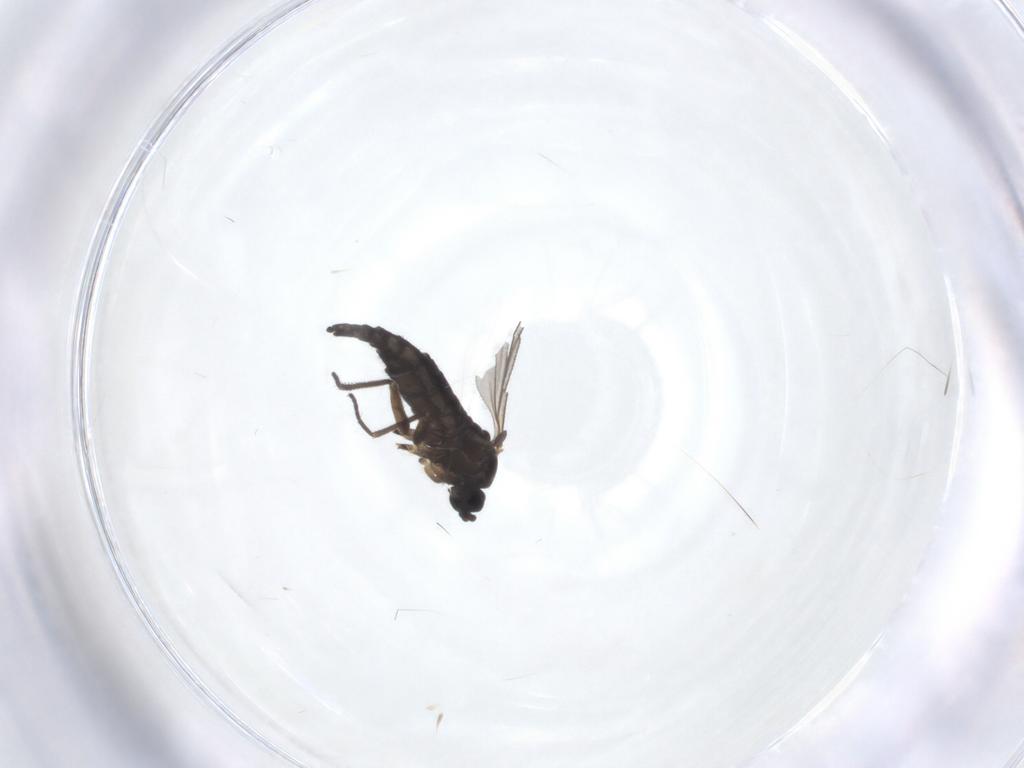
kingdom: Animalia
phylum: Arthropoda
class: Insecta
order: Diptera
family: Sciaridae
